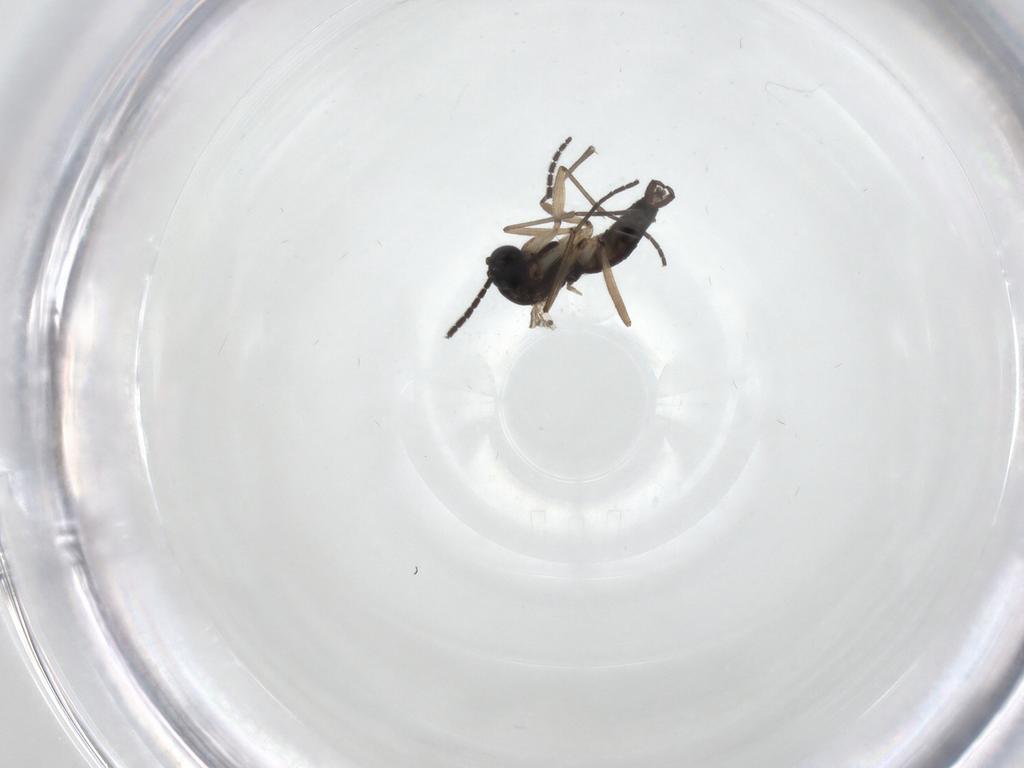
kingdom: Animalia
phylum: Arthropoda
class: Insecta
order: Diptera
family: Sciaridae
